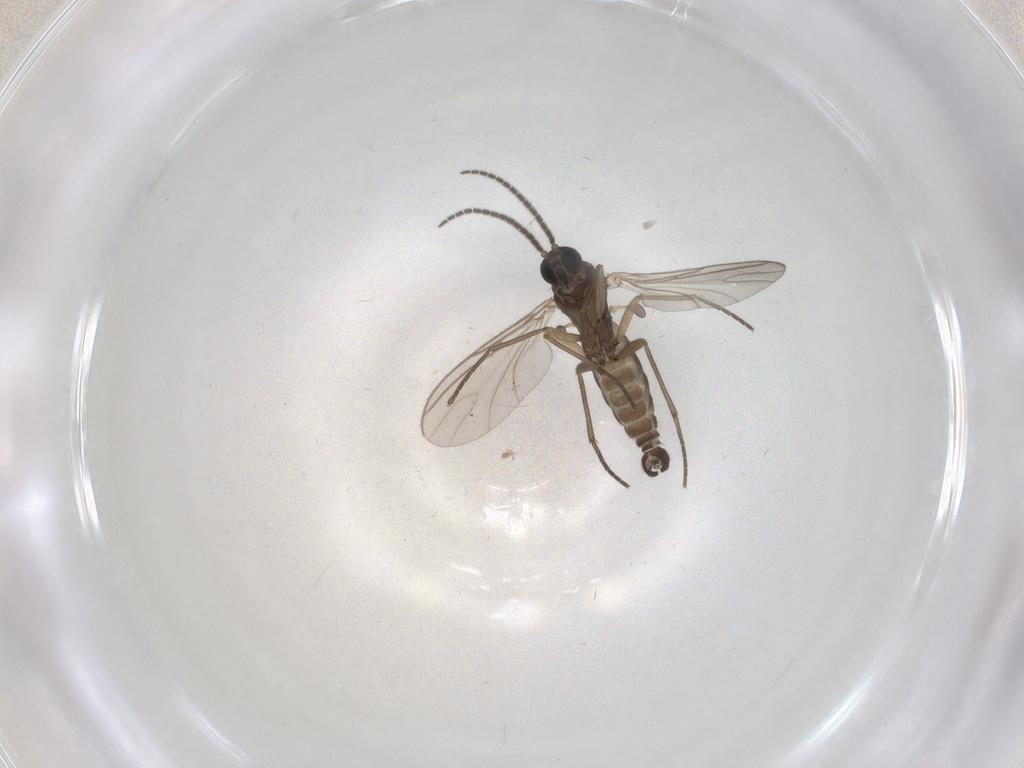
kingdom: Animalia
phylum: Arthropoda
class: Insecta
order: Diptera
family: Sciaridae
